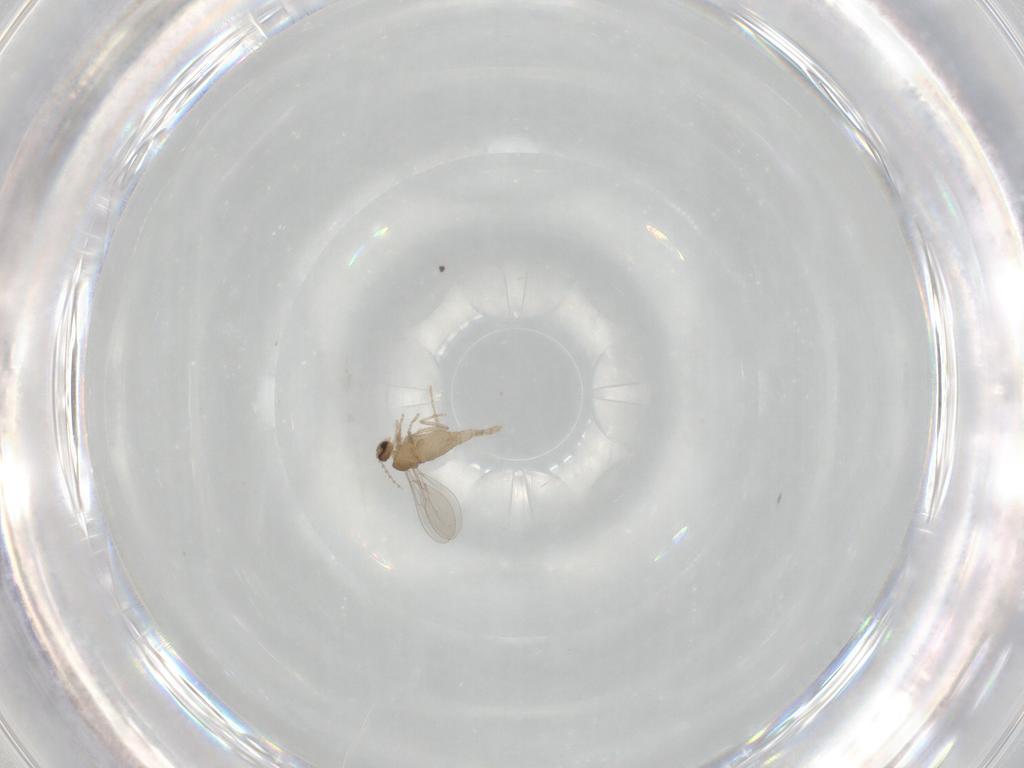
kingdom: Animalia
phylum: Arthropoda
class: Insecta
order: Diptera
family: Cecidomyiidae
